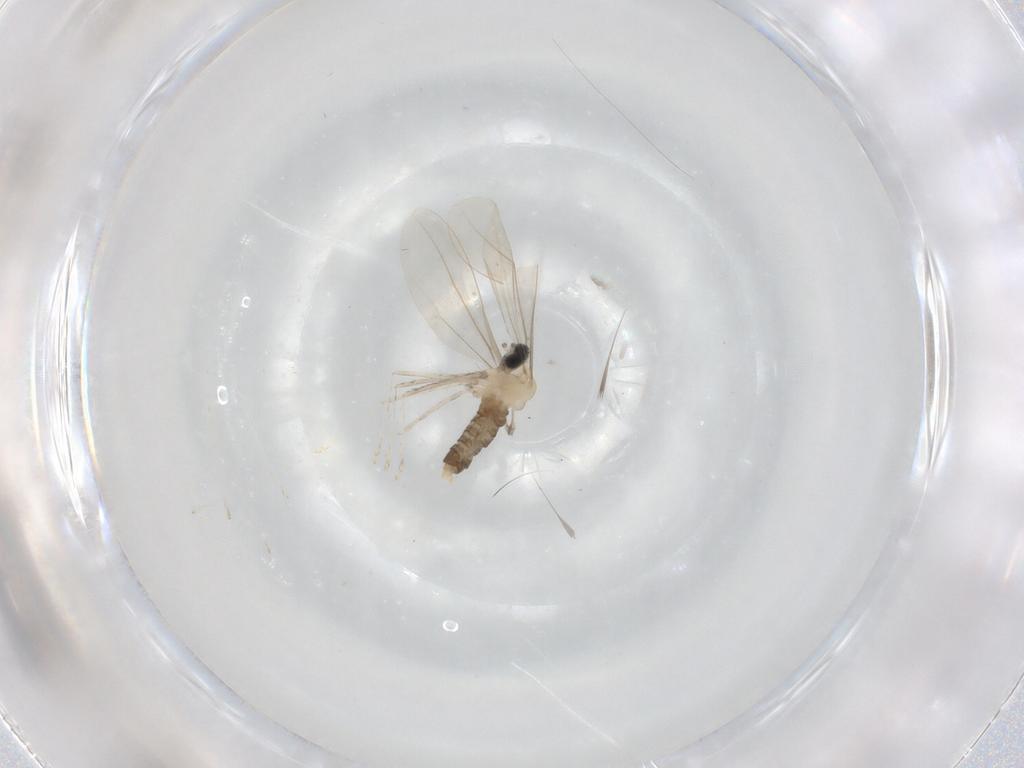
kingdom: Animalia
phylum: Arthropoda
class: Insecta
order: Diptera
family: Cecidomyiidae
